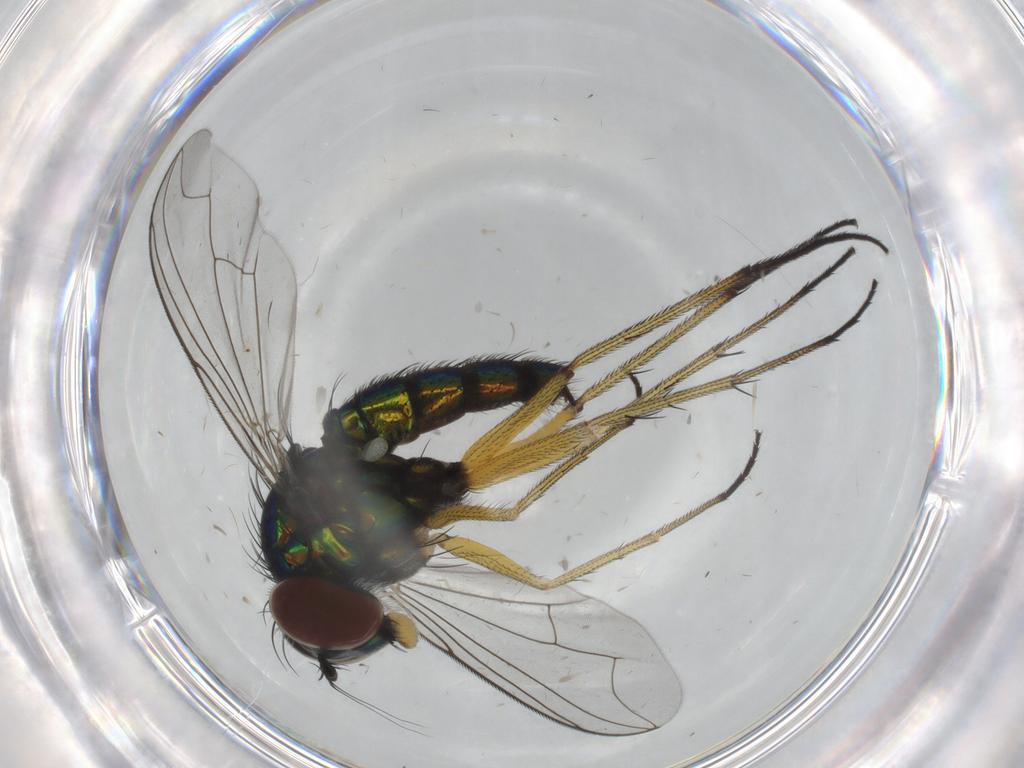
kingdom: Animalia
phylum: Arthropoda
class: Insecta
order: Diptera
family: Dolichopodidae
